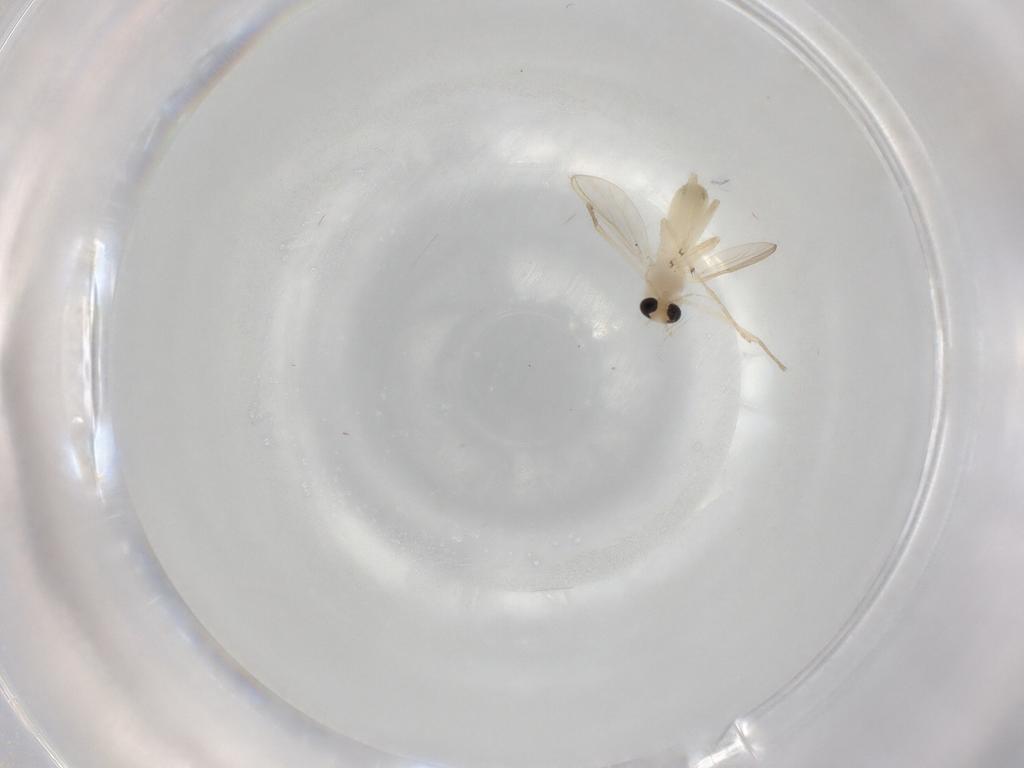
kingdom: Animalia
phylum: Arthropoda
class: Insecta
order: Diptera
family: Chironomidae
